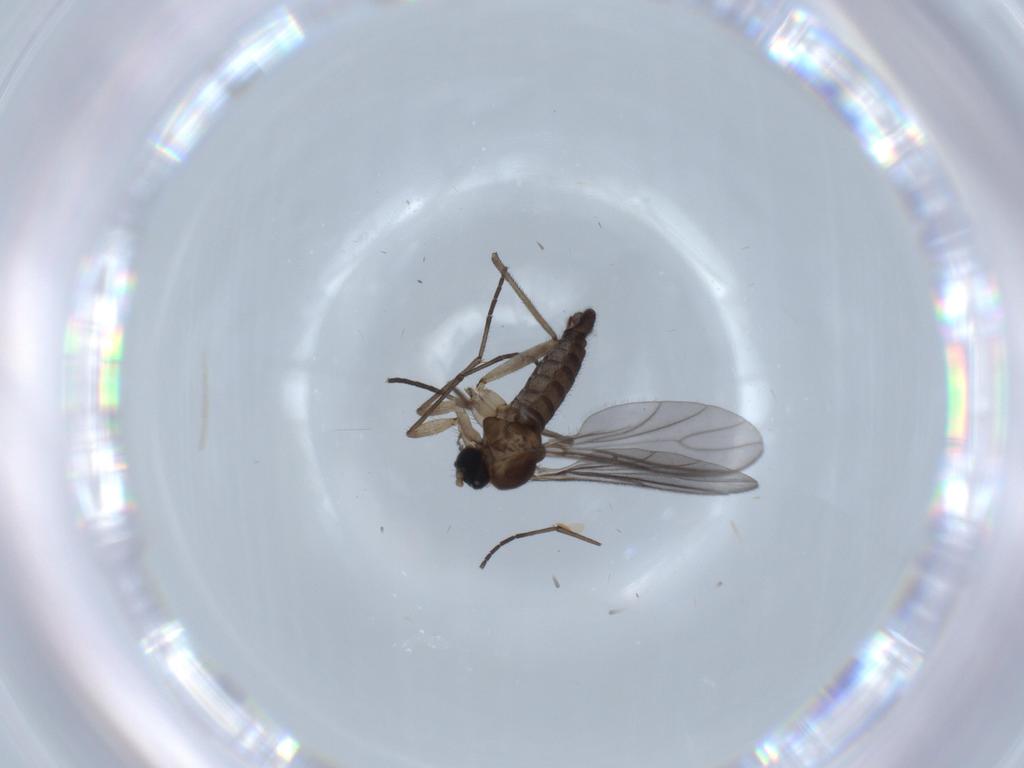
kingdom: Animalia
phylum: Arthropoda
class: Insecta
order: Diptera
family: Sciaridae
